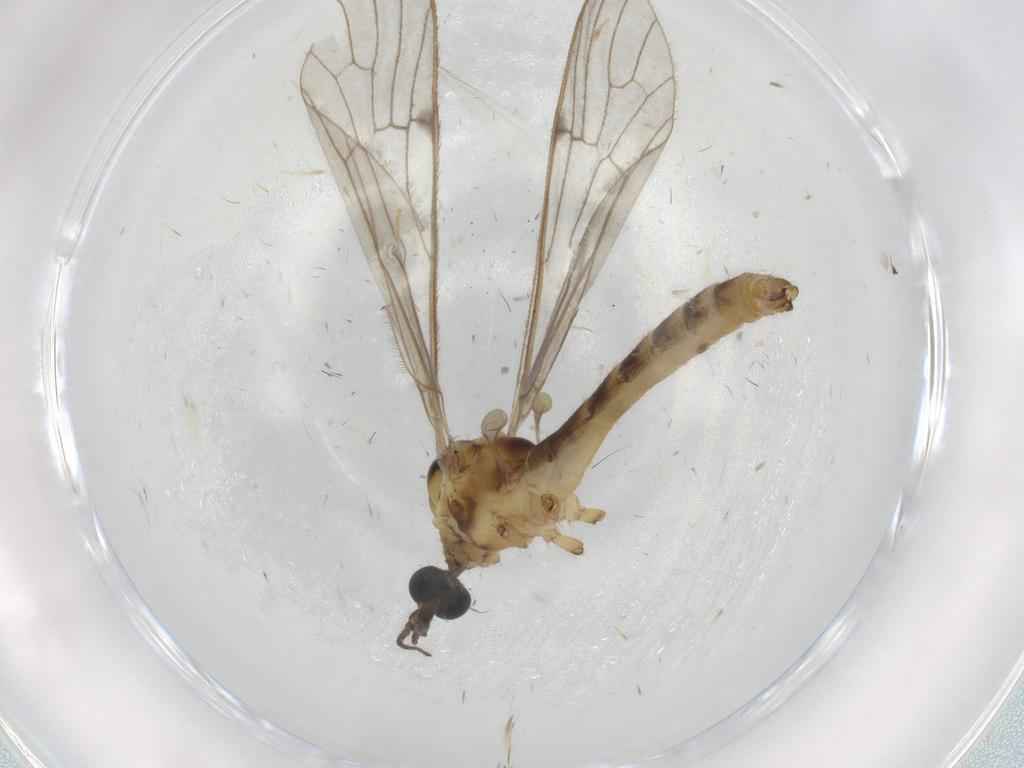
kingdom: Animalia
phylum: Arthropoda
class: Insecta
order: Diptera
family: Limoniidae
